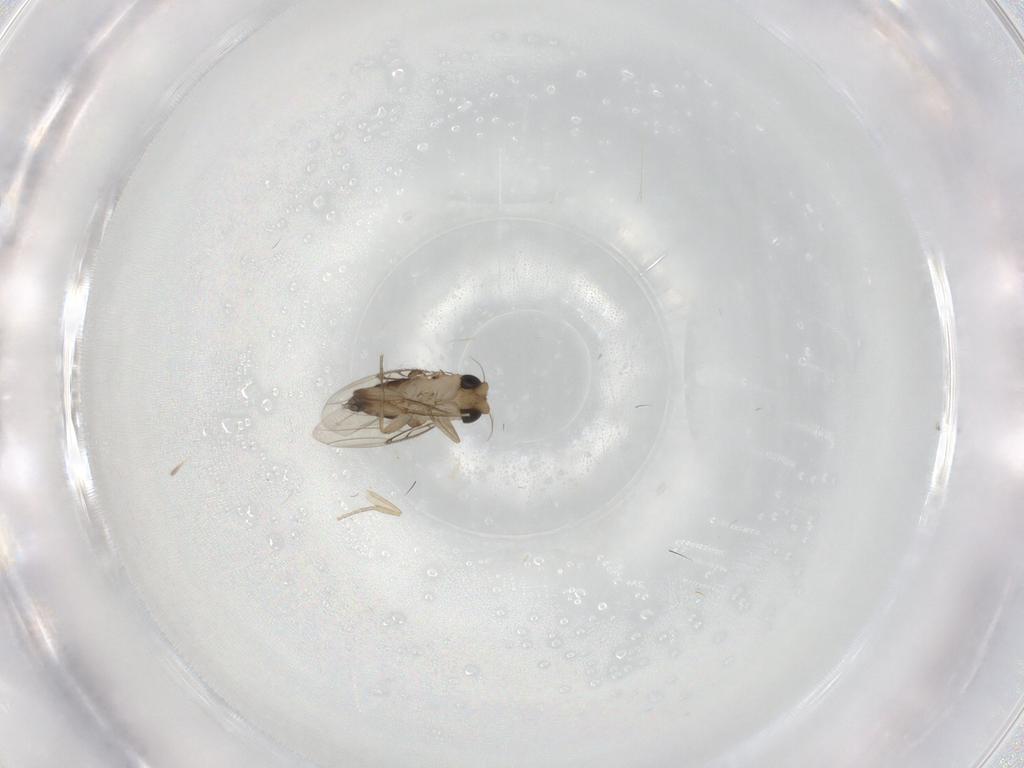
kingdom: Animalia
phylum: Arthropoda
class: Insecta
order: Diptera
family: Phoridae
